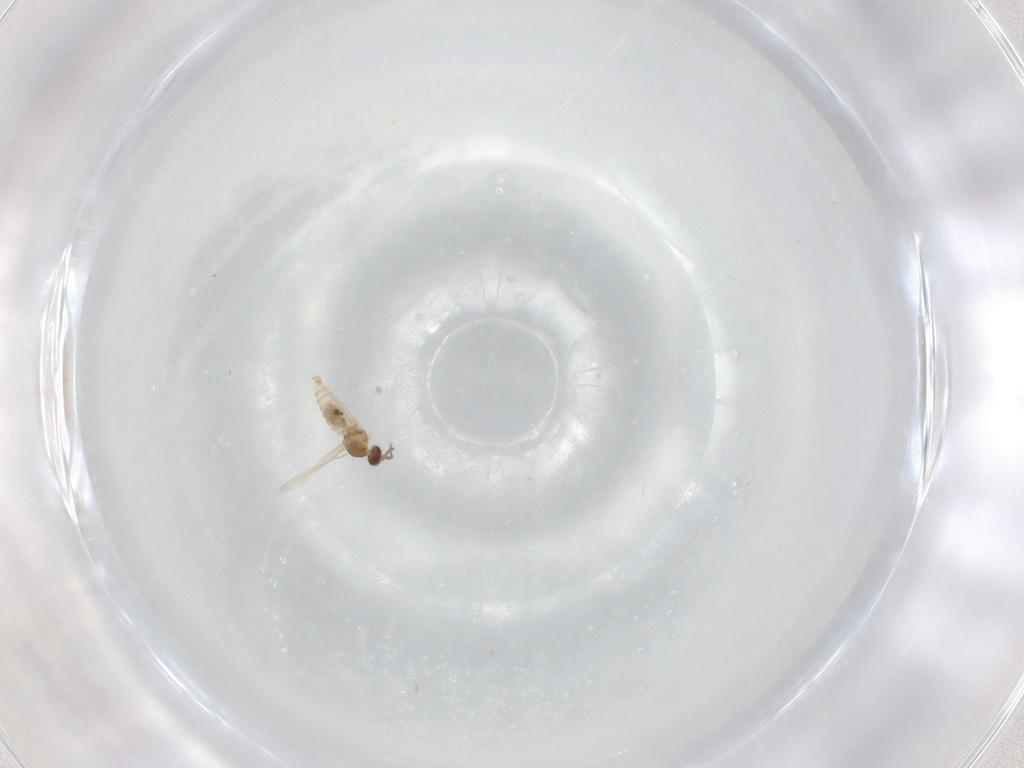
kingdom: Animalia
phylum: Arthropoda
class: Insecta
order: Diptera
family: Cecidomyiidae
